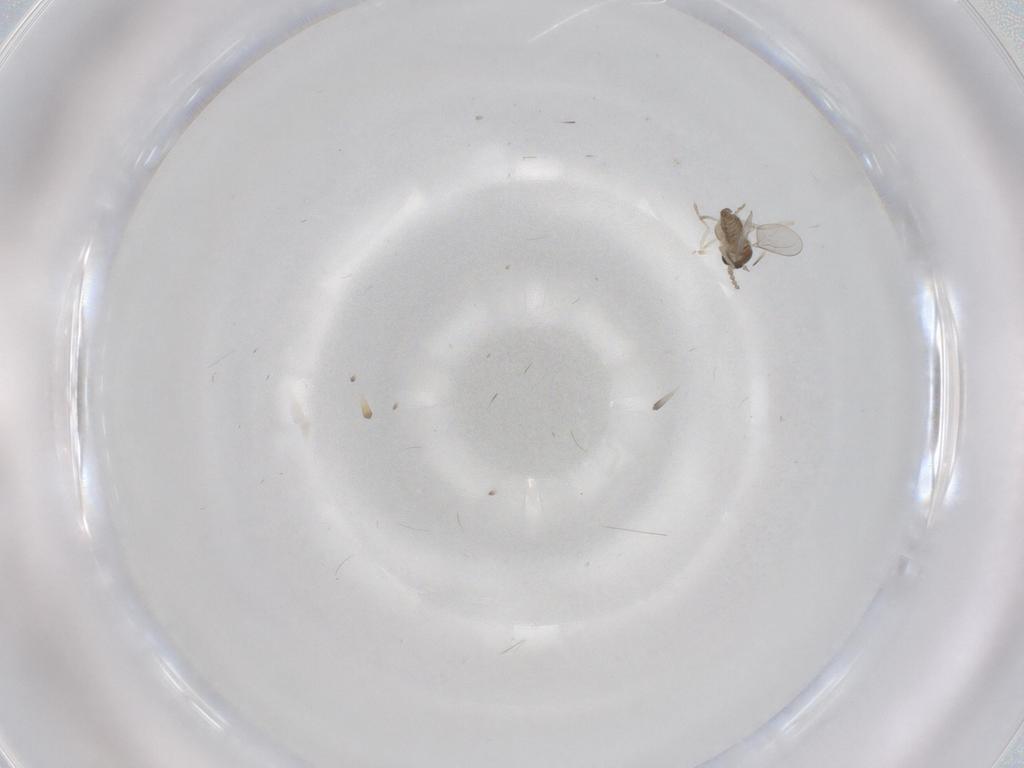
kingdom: Animalia
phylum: Arthropoda
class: Insecta
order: Diptera
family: Cecidomyiidae
